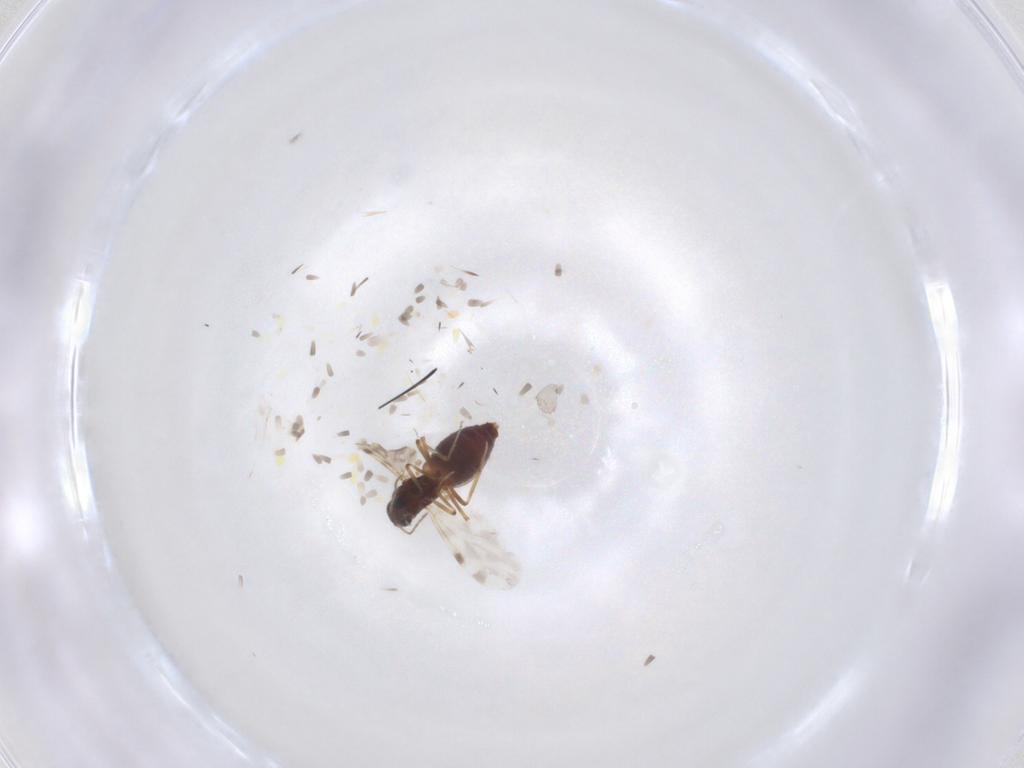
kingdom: Animalia
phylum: Arthropoda
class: Insecta
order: Diptera
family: Ceratopogonidae
